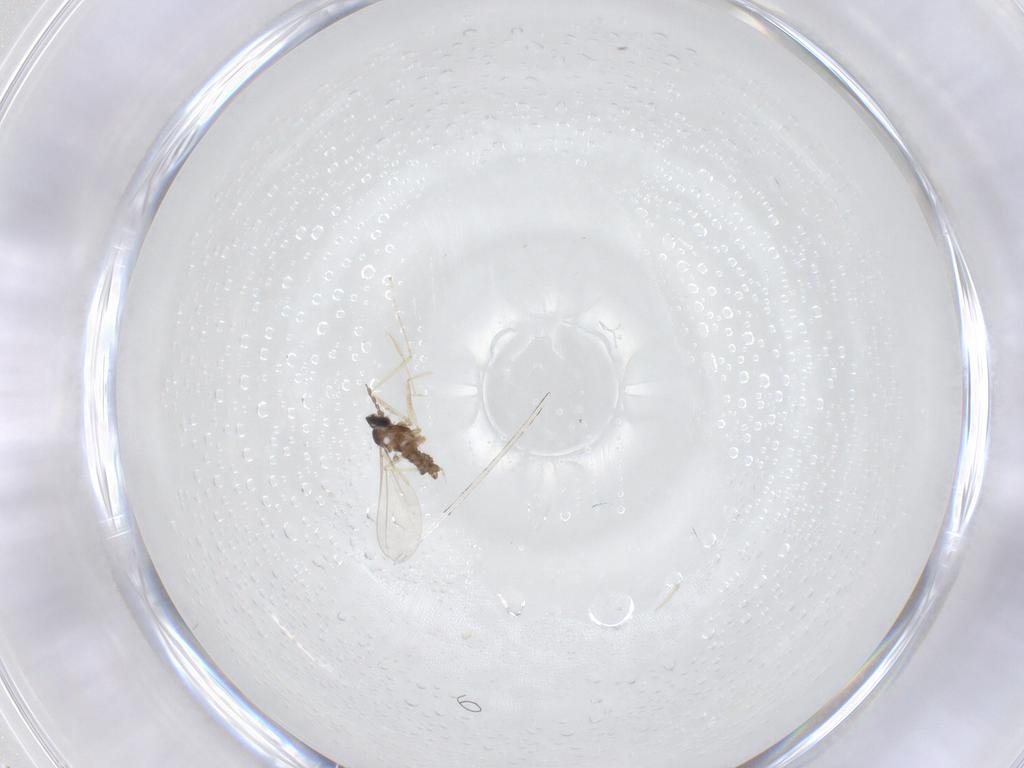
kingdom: Animalia
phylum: Arthropoda
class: Insecta
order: Diptera
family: Cecidomyiidae
